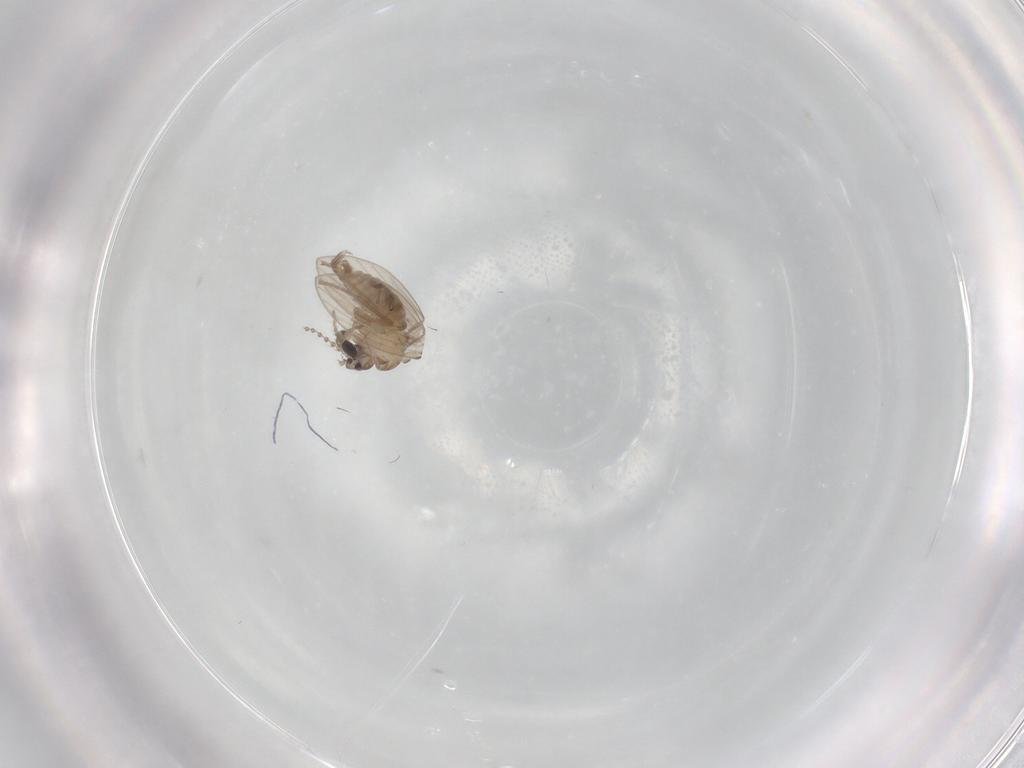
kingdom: Animalia
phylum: Arthropoda
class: Insecta
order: Diptera
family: Psychodidae
